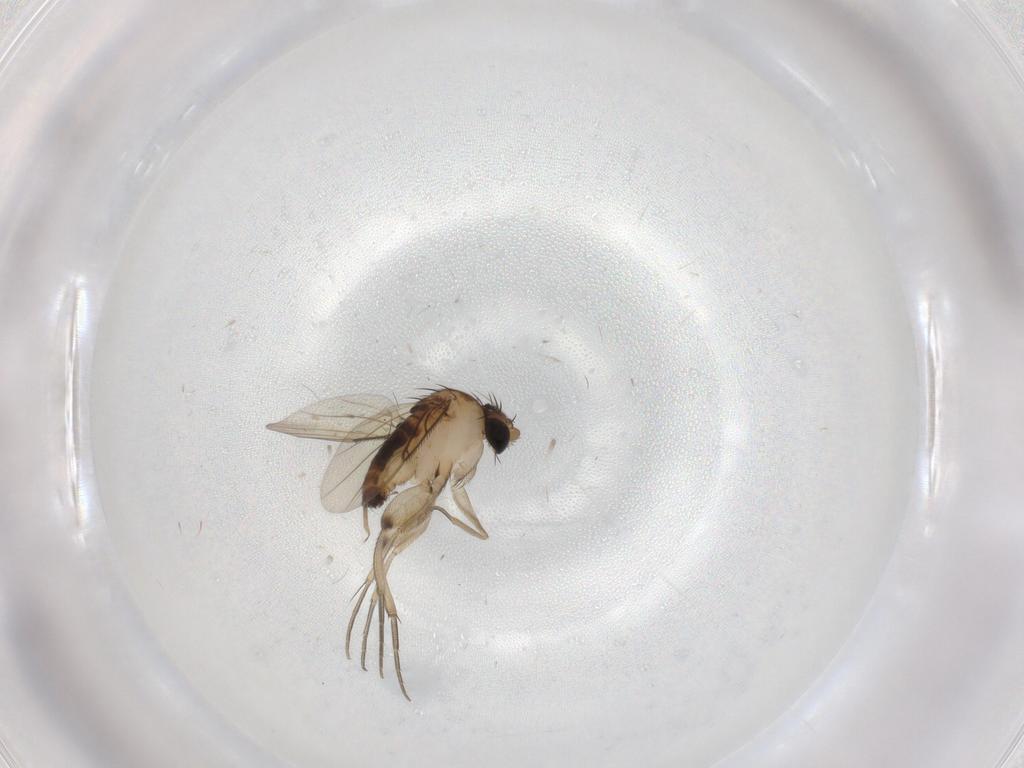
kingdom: Animalia
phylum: Arthropoda
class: Insecta
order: Diptera
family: Phoridae
